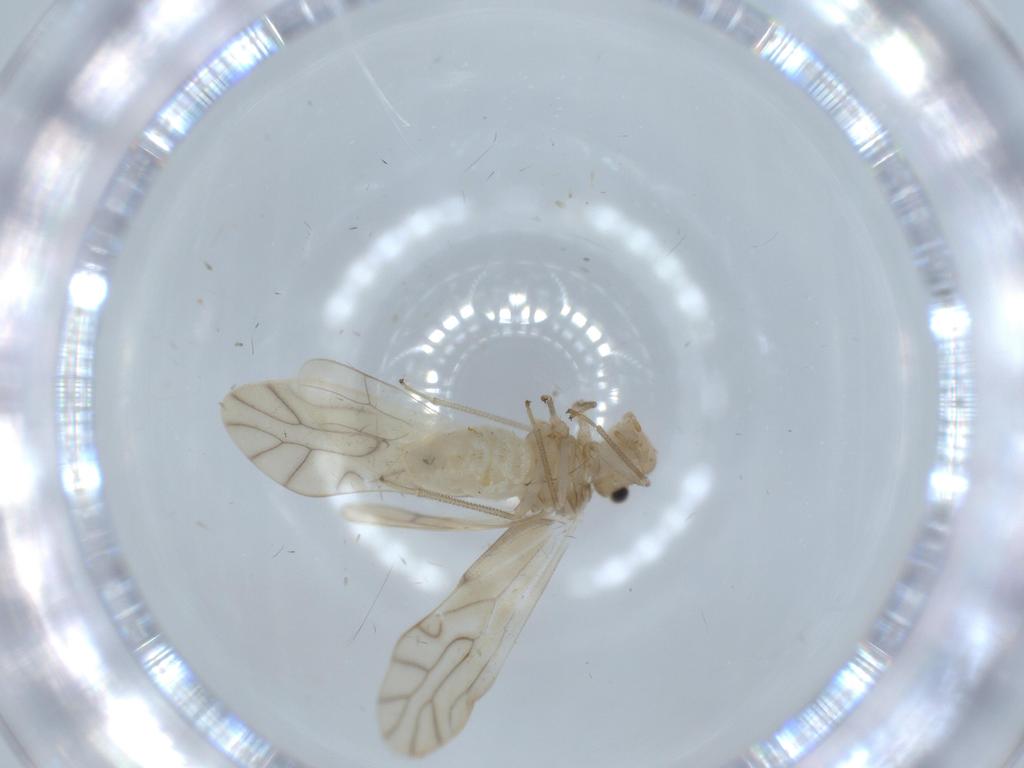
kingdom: Animalia
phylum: Arthropoda
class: Insecta
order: Psocodea
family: Caeciliusidae
